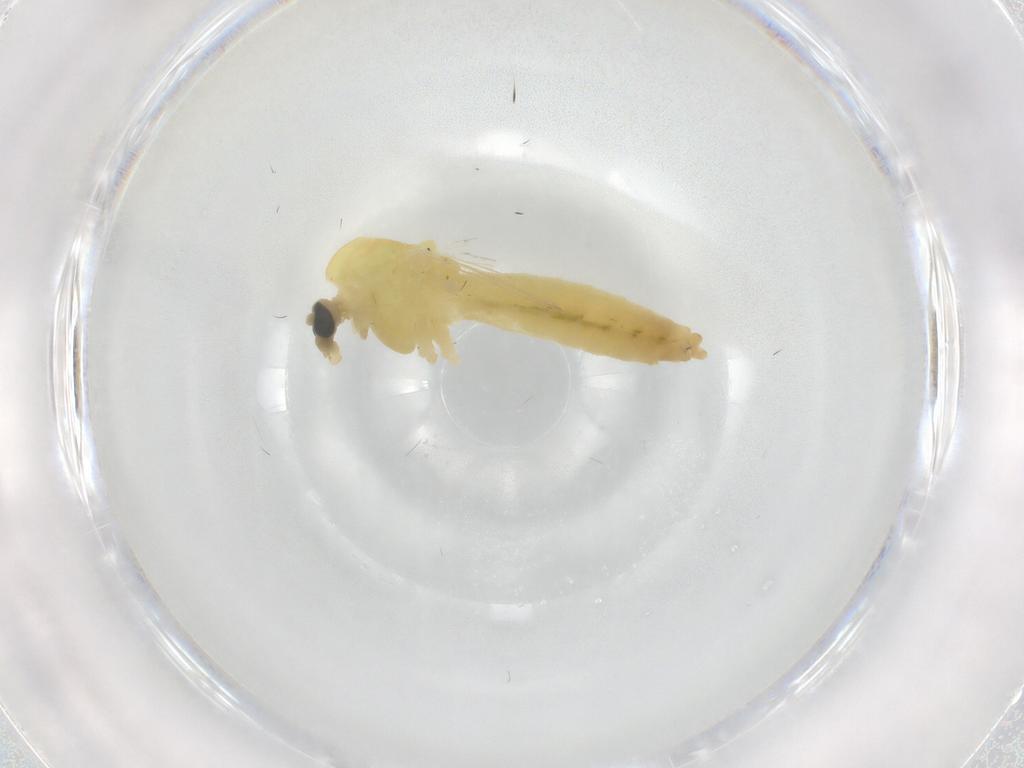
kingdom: Animalia
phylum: Arthropoda
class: Insecta
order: Diptera
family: Chironomidae
